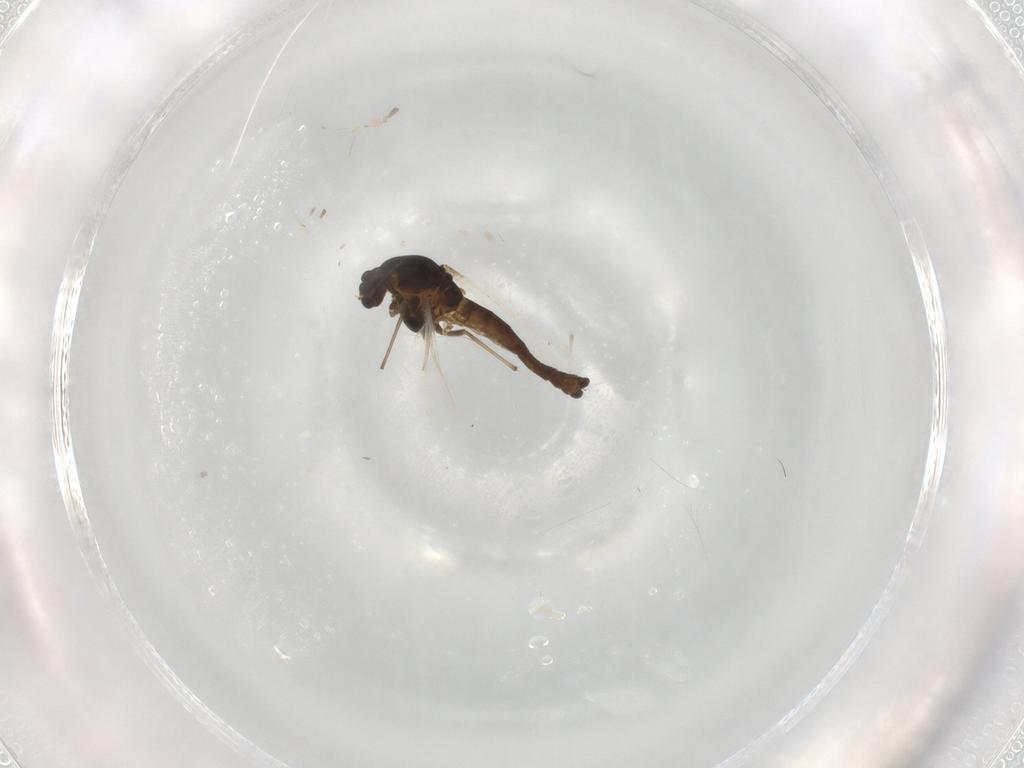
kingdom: Animalia
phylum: Arthropoda
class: Insecta
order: Diptera
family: Chironomidae
